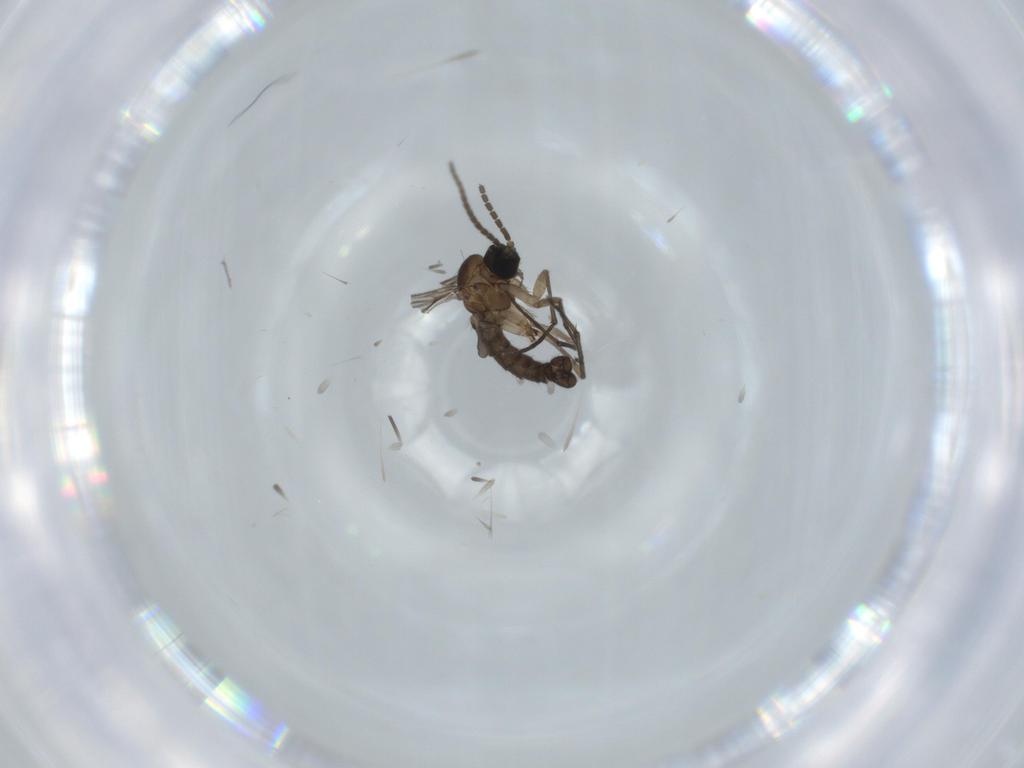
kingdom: Animalia
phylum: Arthropoda
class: Insecta
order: Diptera
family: Sciaridae
